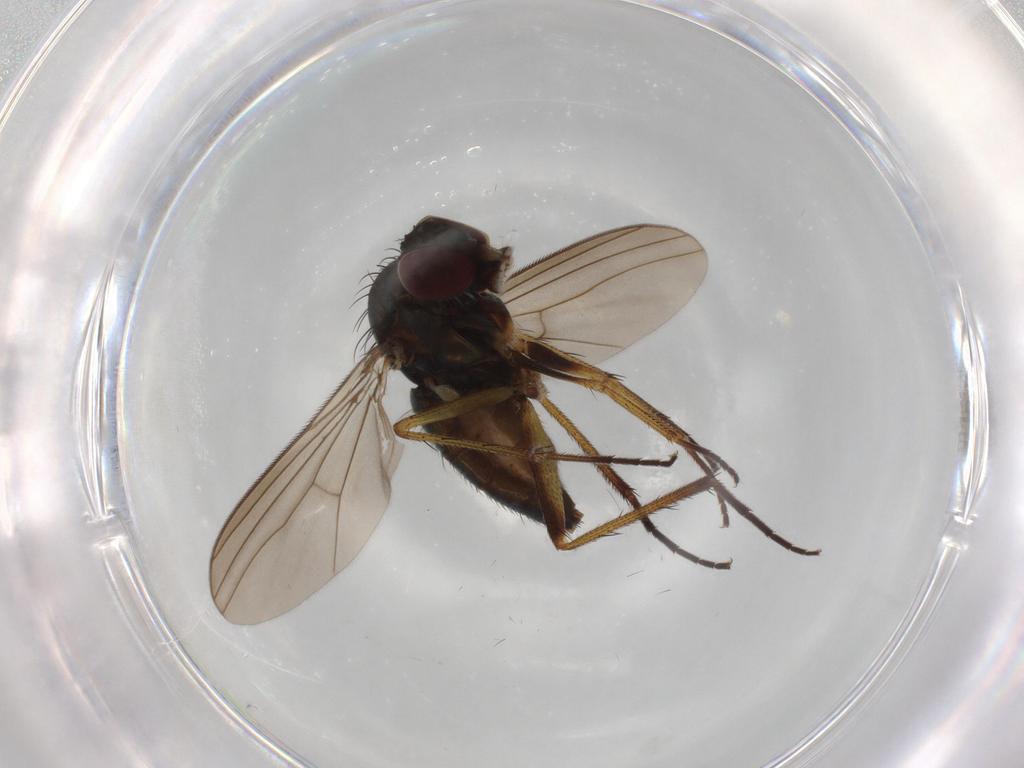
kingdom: Animalia
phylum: Arthropoda
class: Insecta
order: Diptera
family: Dolichopodidae
